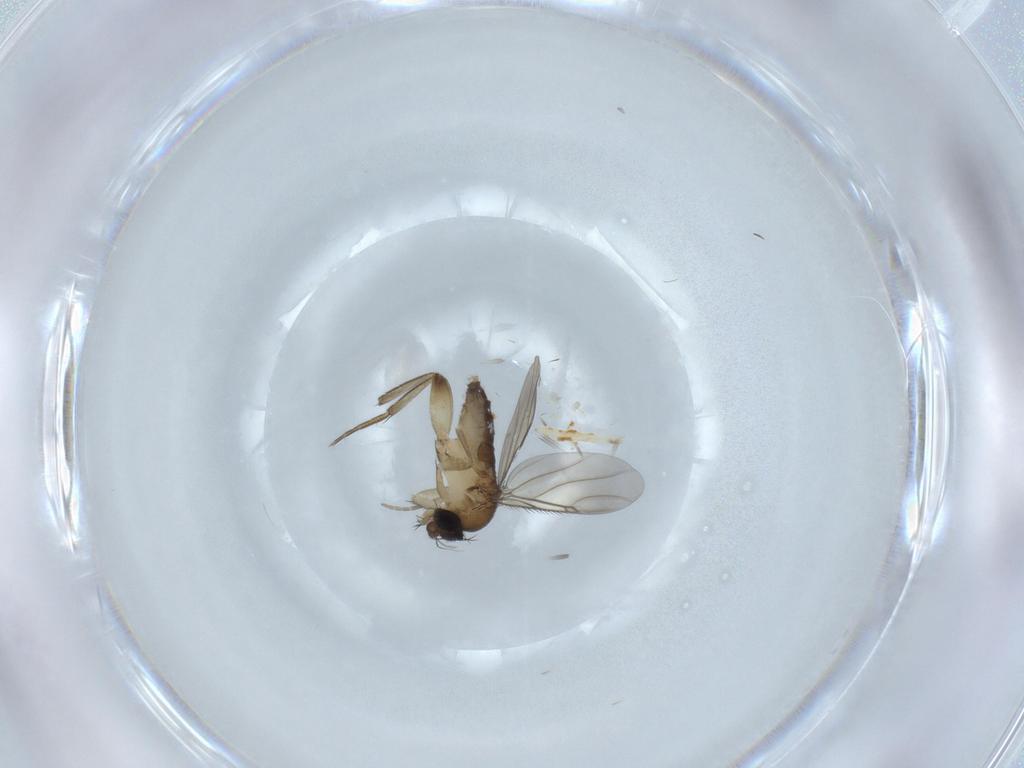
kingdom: Animalia
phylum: Arthropoda
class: Insecta
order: Diptera
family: Phoridae
